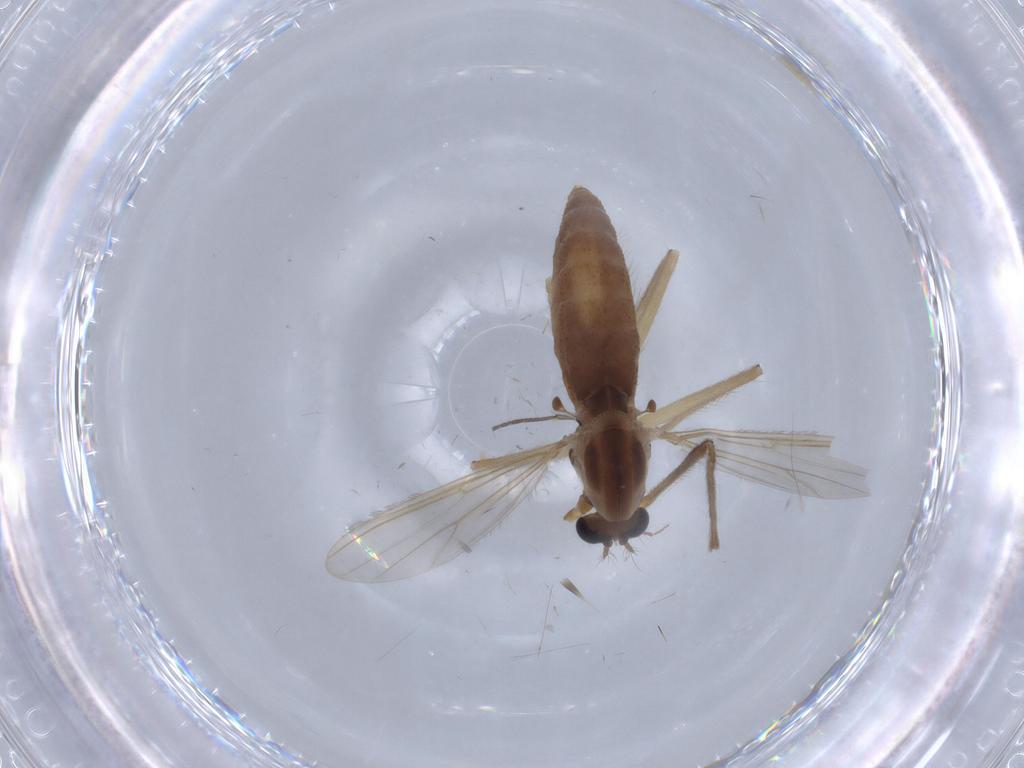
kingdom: Animalia
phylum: Arthropoda
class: Insecta
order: Diptera
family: Chironomidae
